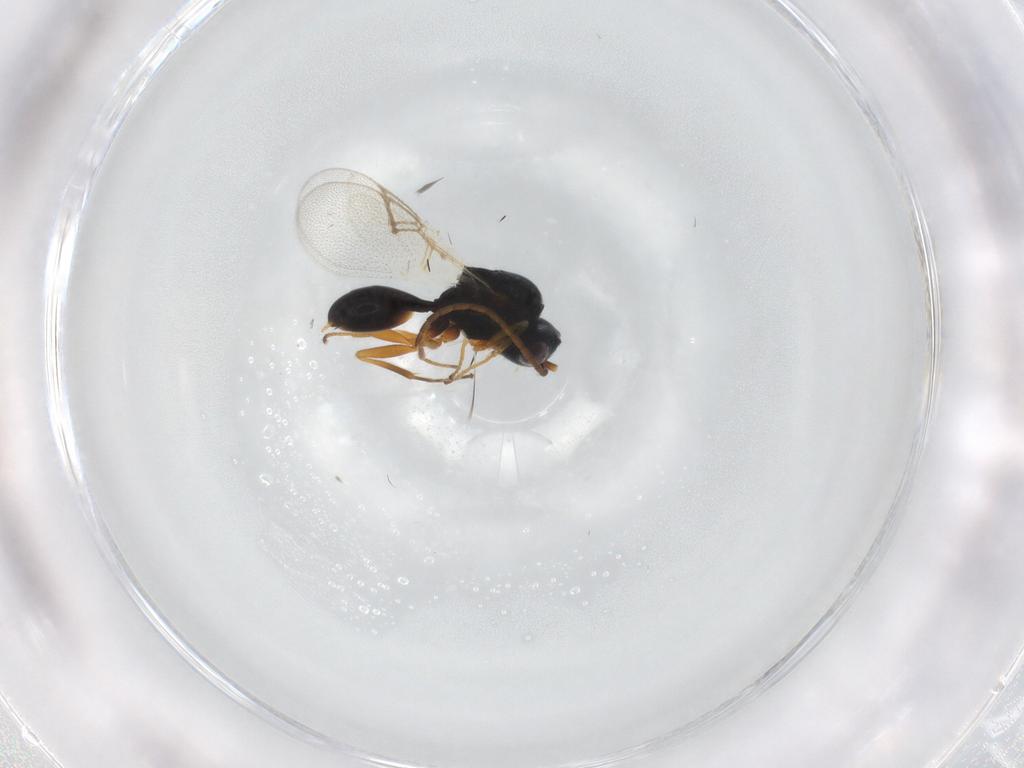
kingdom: Animalia
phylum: Arthropoda
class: Insecta
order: Hymenoptera
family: Figitidae
